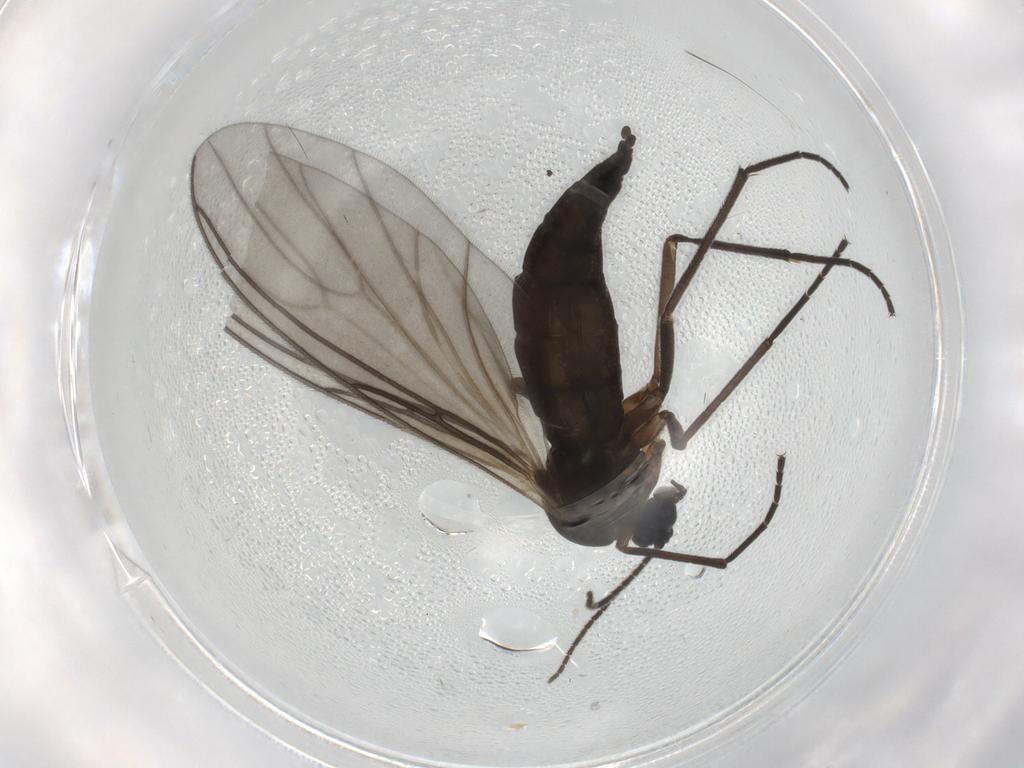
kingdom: Animalia
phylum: Arthropoda
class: Insecta
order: Diptera
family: Sciaridae
